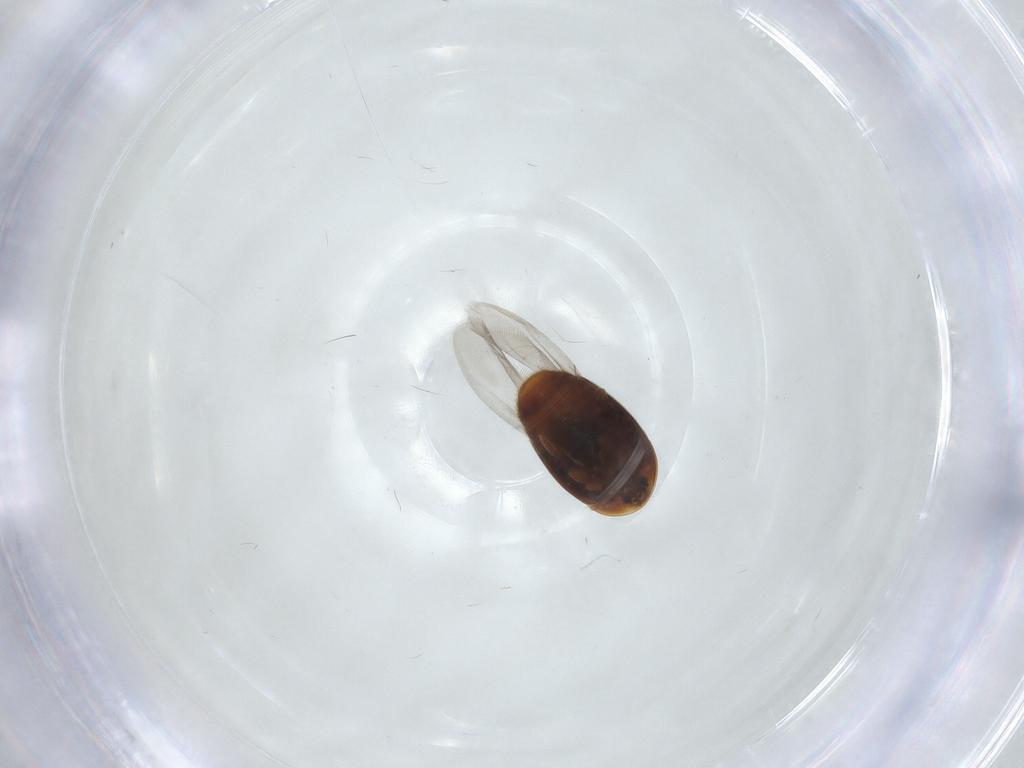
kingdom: Animalia
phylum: Arthropoda
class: Insecta
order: Coleoptera
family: Corylophidae
